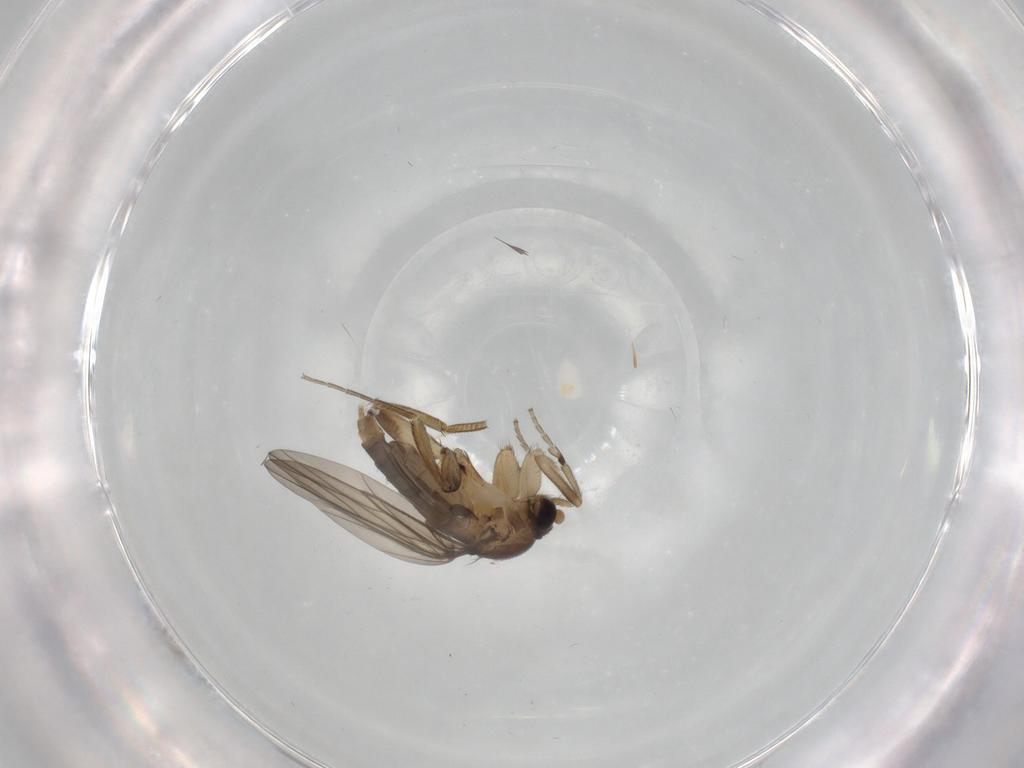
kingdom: Animalia
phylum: Arthropoda
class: Insecta
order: Diptera
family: Phoridae
